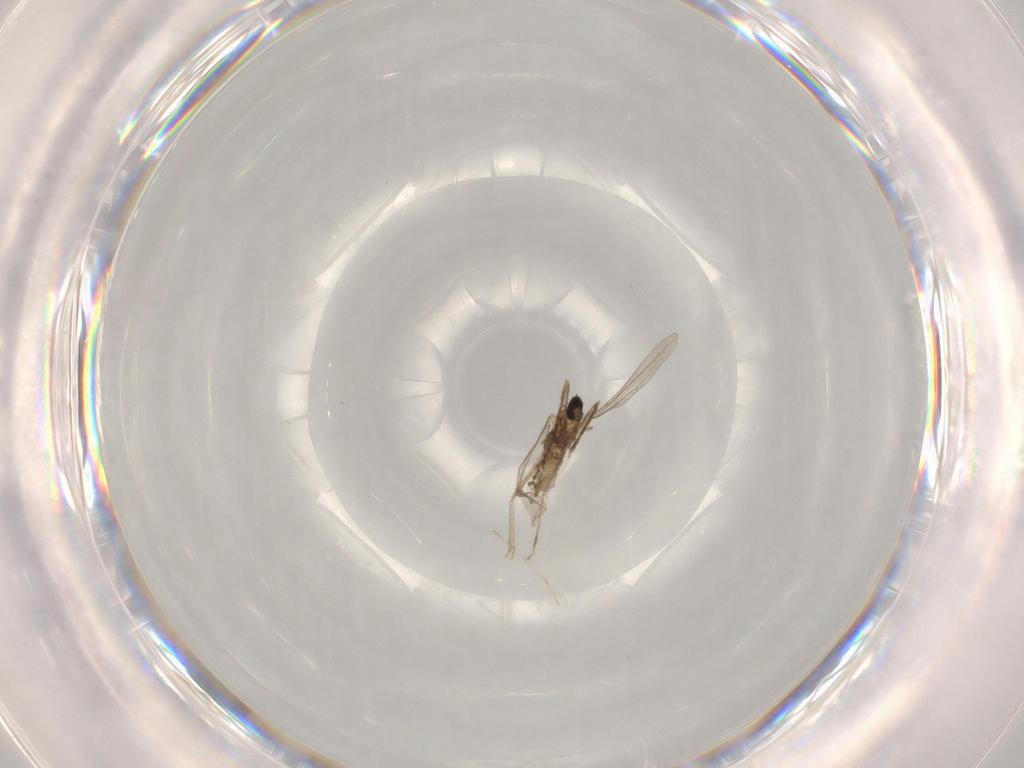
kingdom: Animalia
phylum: Arthropoda
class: Insecta
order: Diptera
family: Cecidomyiidae
